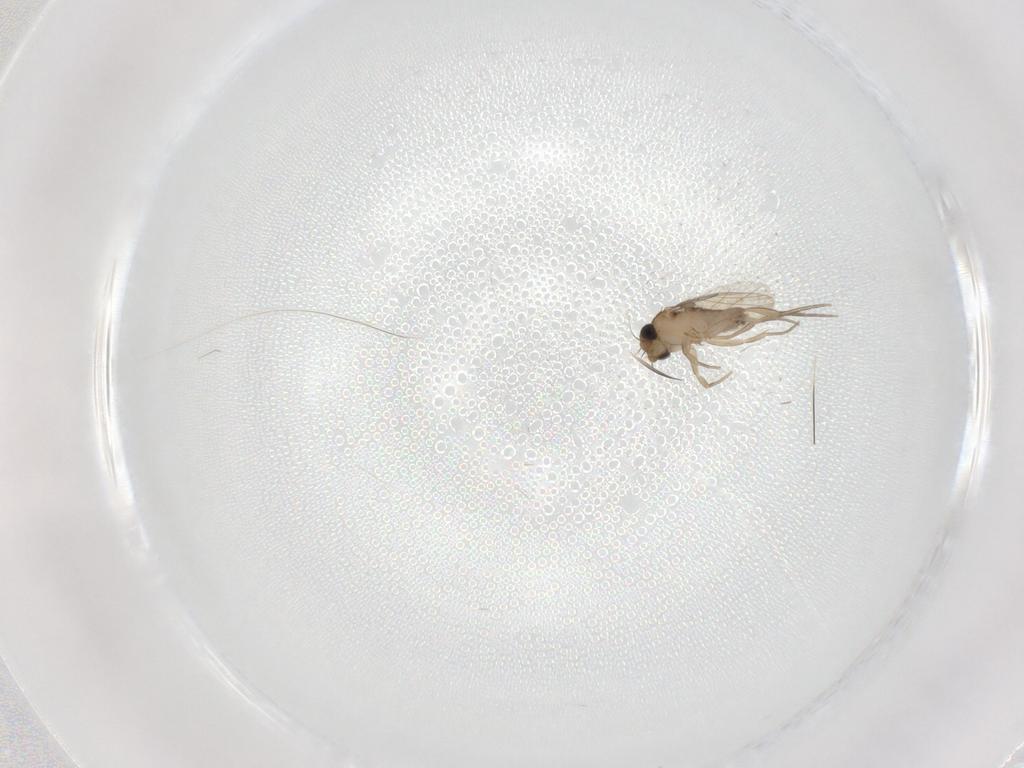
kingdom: Animalia
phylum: Arthropoda
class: Insecta
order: Diptera
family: Phoridae
